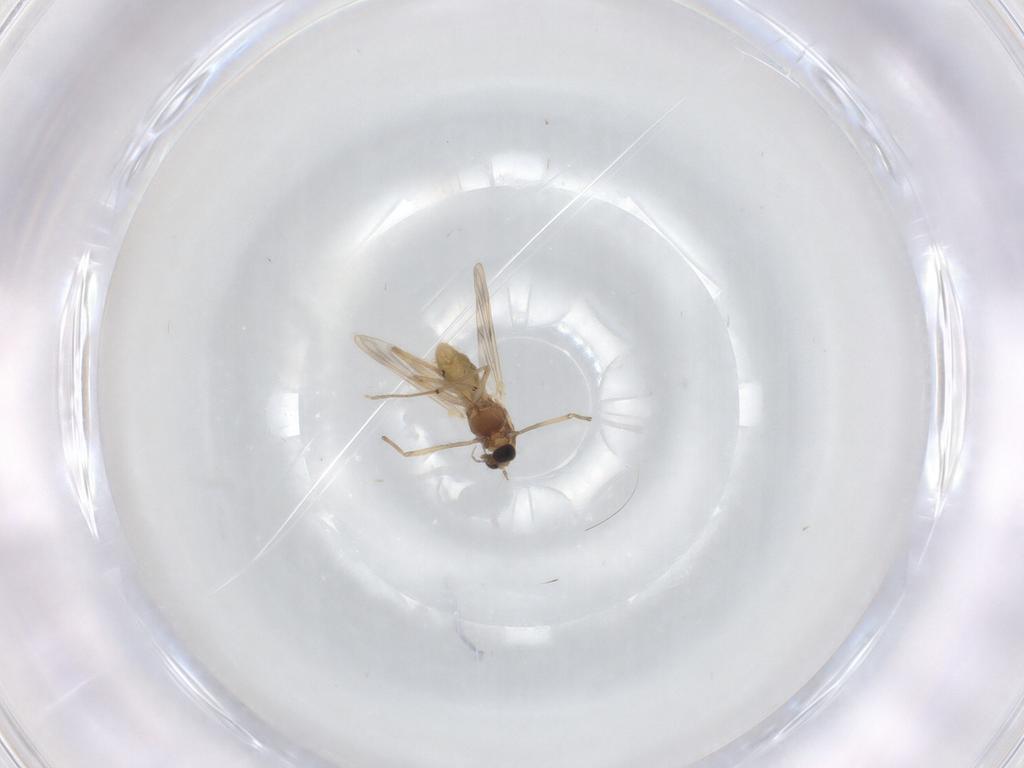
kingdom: Animalia
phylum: Arthropoda
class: Insecta
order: Diptera
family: Chironomidae
